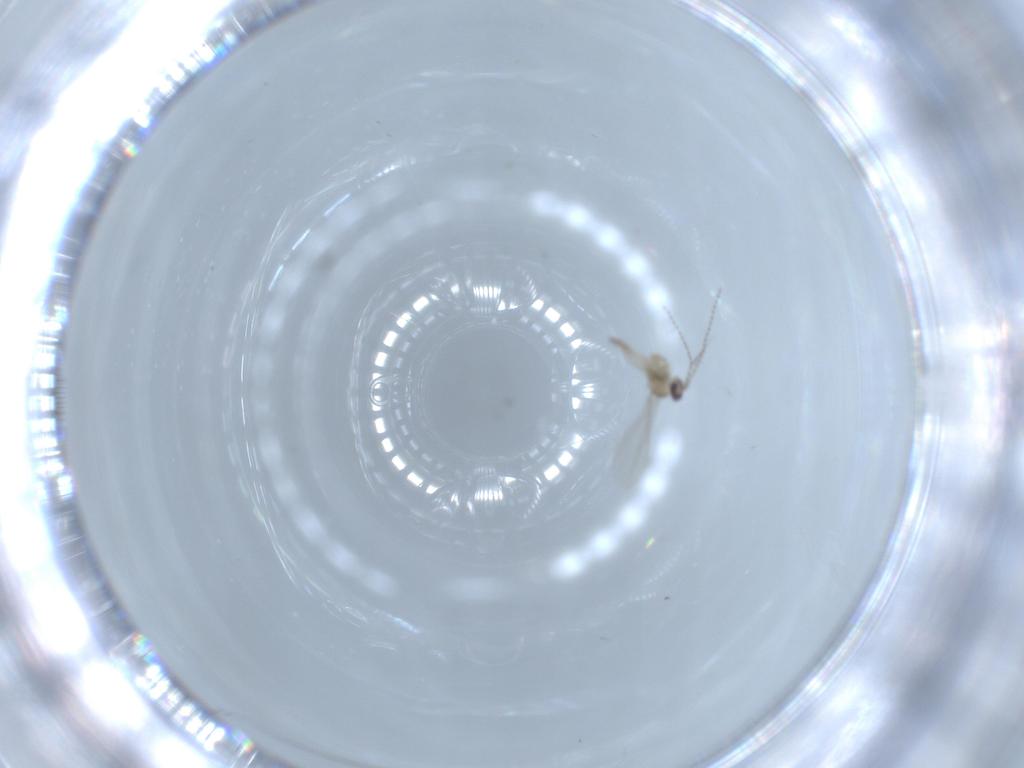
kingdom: Animalia
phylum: Arthropoda
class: Insecta
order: Diptera
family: Cecidomyiidae
